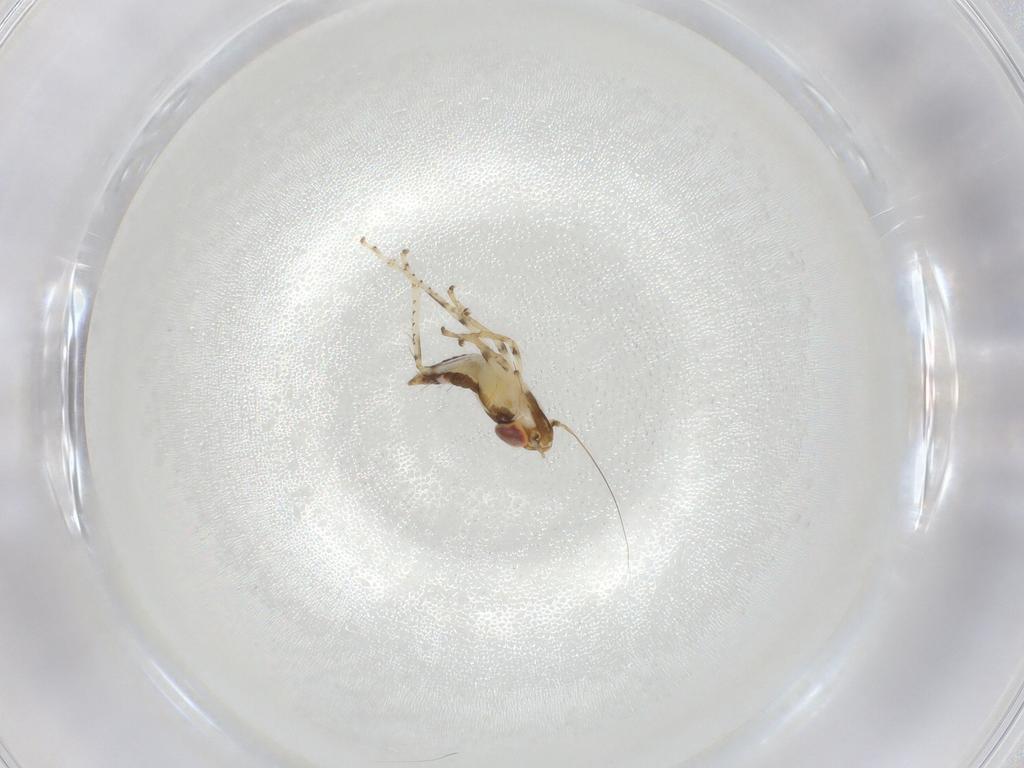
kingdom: Animalia
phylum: Arthropoda
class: Insecta
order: Hemiptera
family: Cicadellidae
